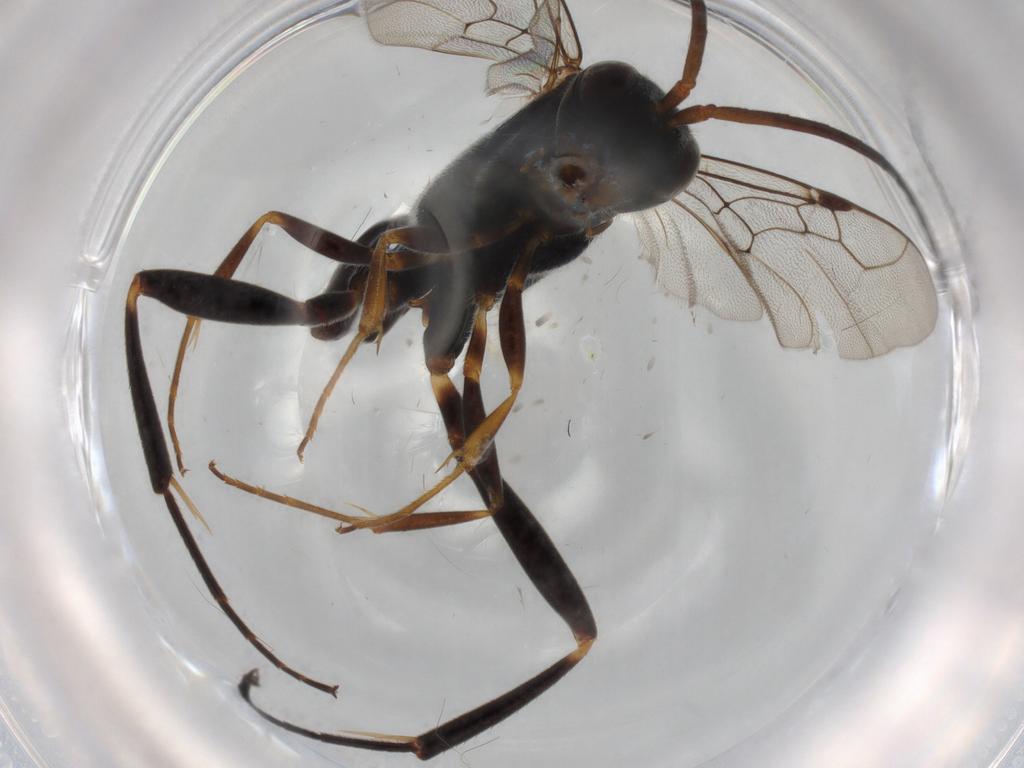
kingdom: Animalia
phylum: Arthropoda
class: Insecta
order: Hymenoptera
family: Evaniidae
